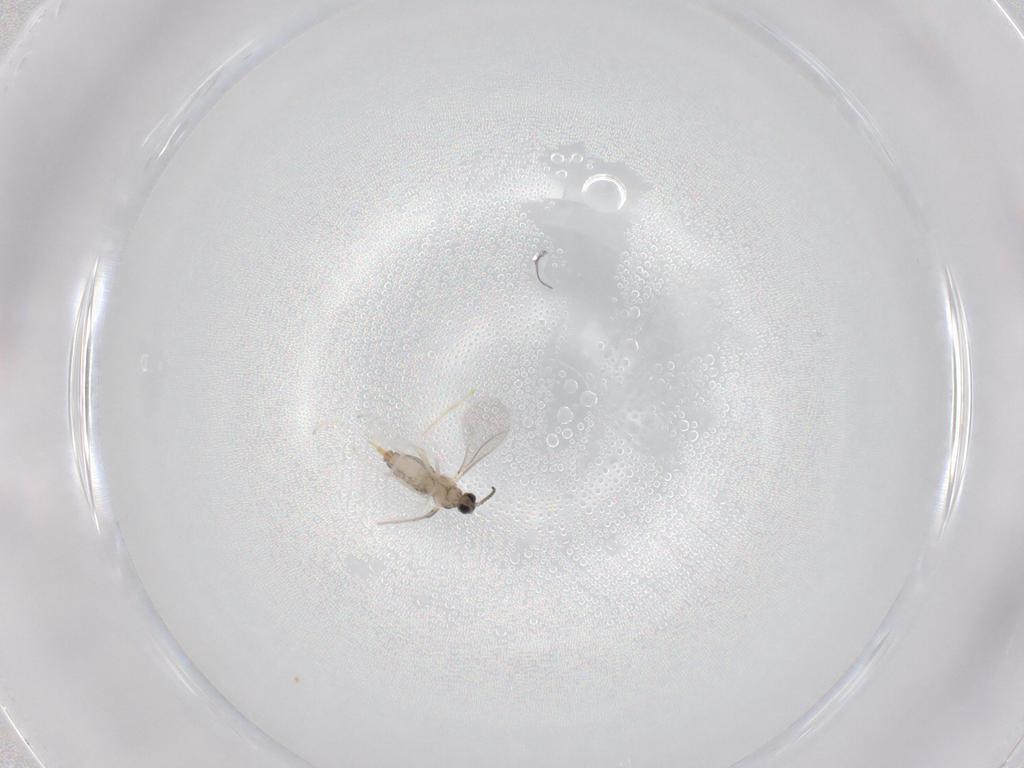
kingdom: Animalia
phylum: Arthropoda
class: Insecta
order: Diptera
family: Cecidomyiidae
